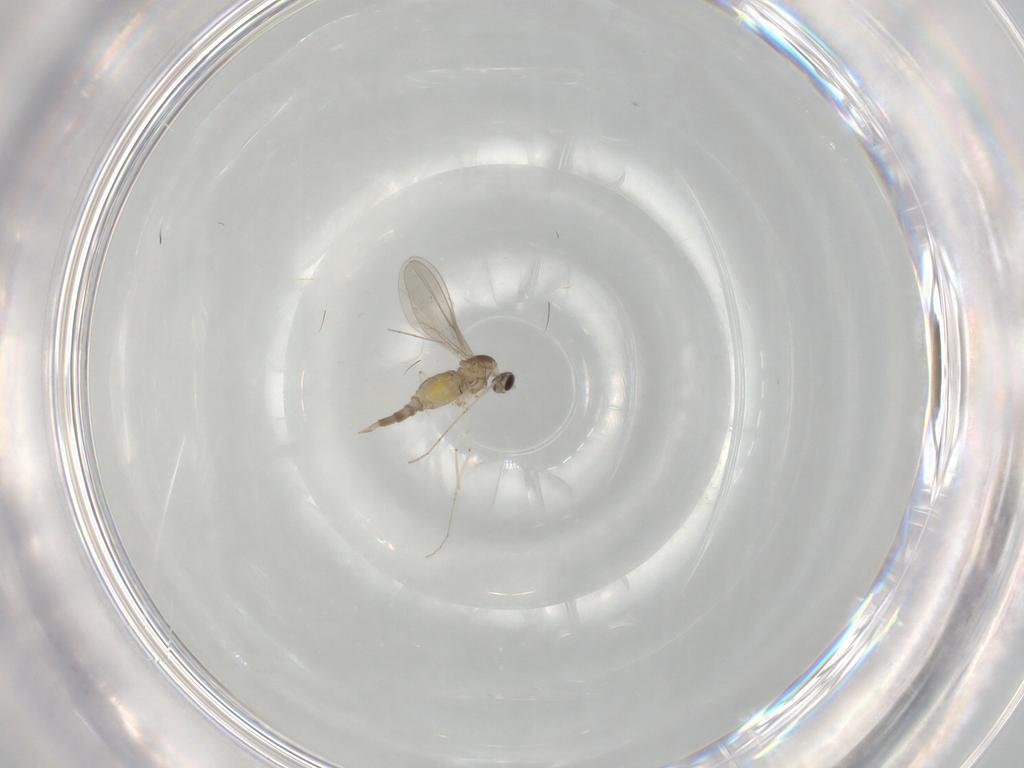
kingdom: Animalia
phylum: Arthropoda
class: Insecta
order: Diptera
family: Cecidomyiidae
